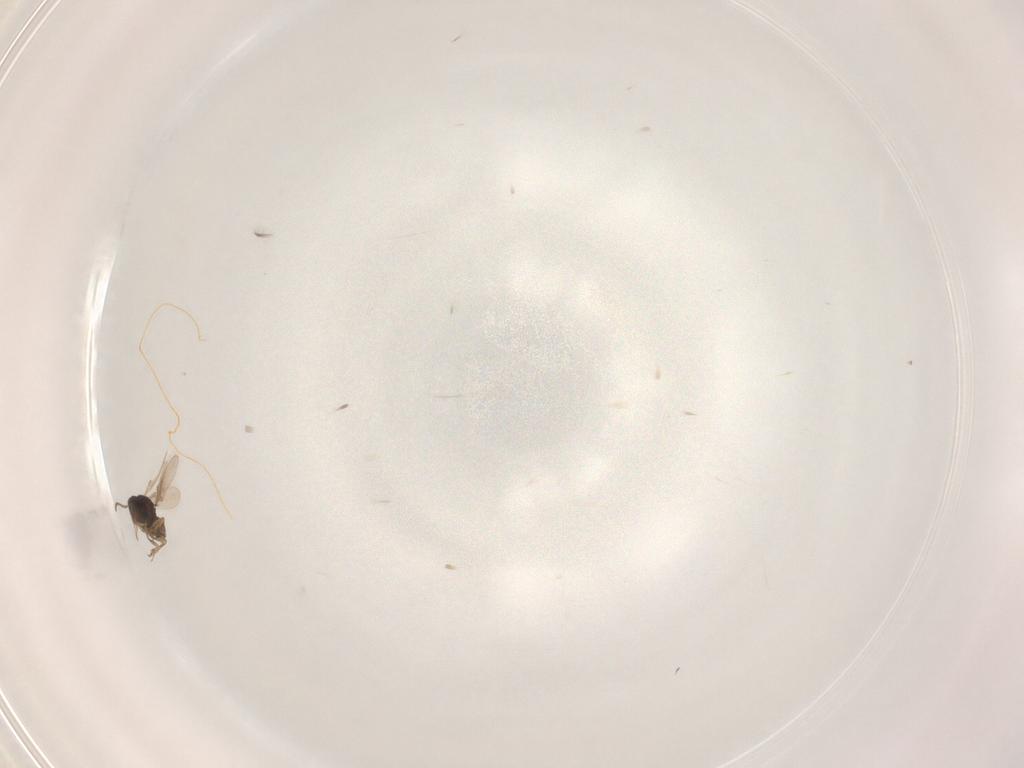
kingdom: Animalia
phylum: Arthropoda
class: Insecta
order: Hymenoptera
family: Scelionidae
